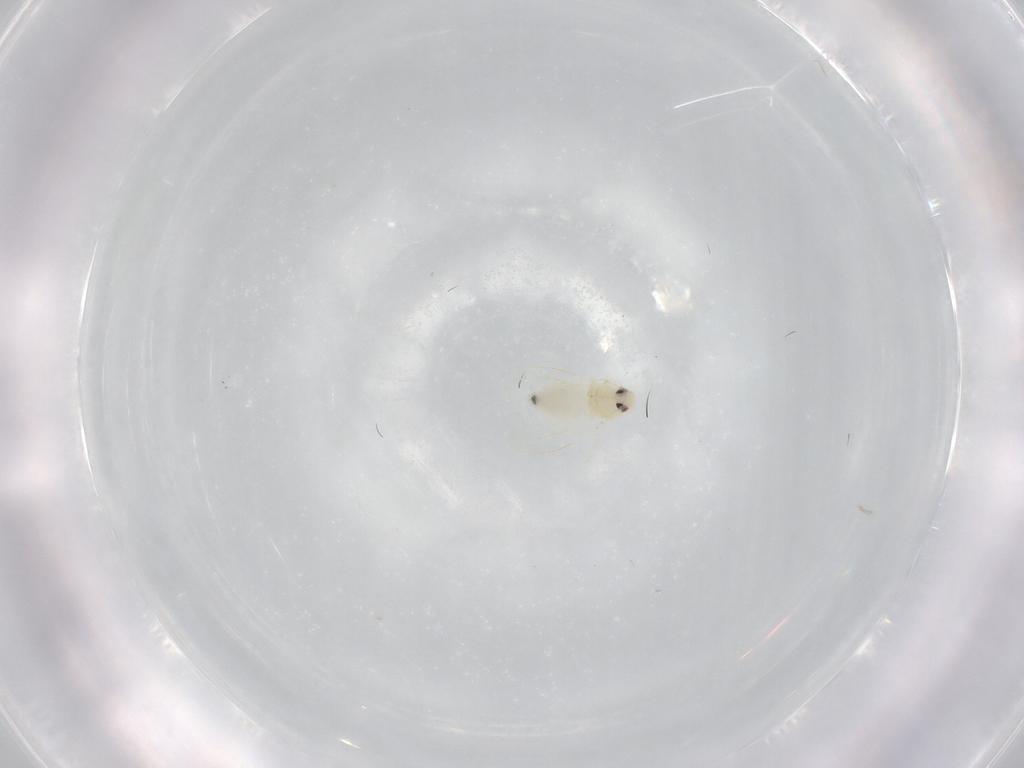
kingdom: Animalia
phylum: Arthropoda
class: Insecta
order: Hemiptera
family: Aleyrodidae
